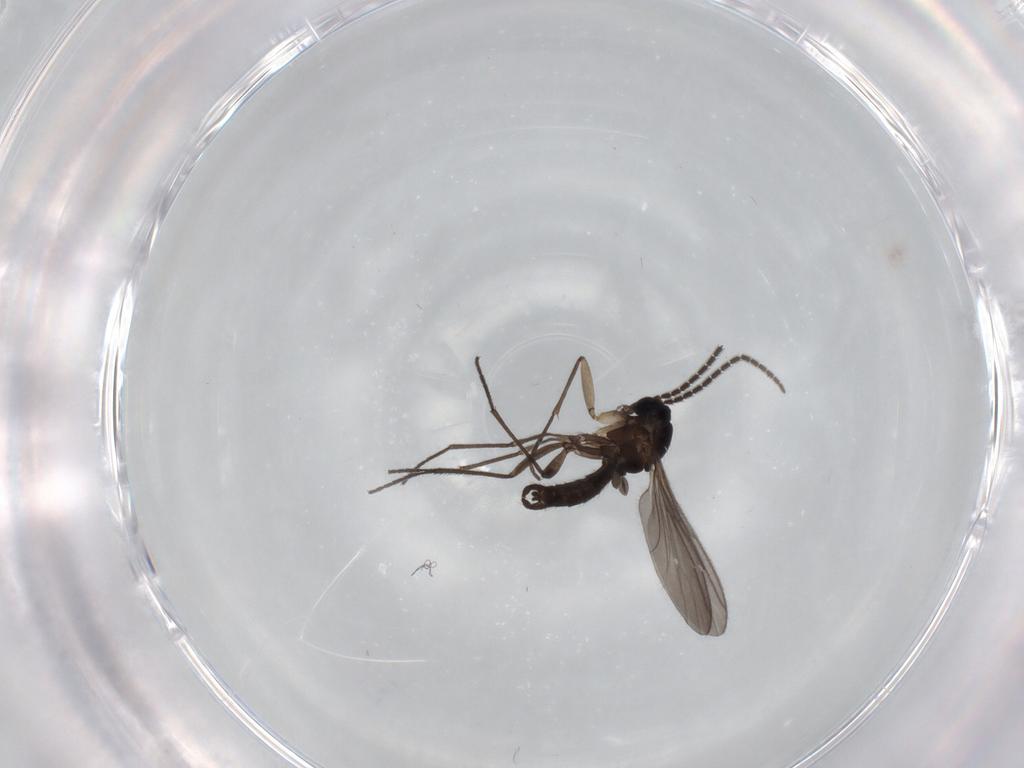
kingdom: Animalia
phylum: Arthropoda
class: Insecta
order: Diptera
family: Sciaridae
